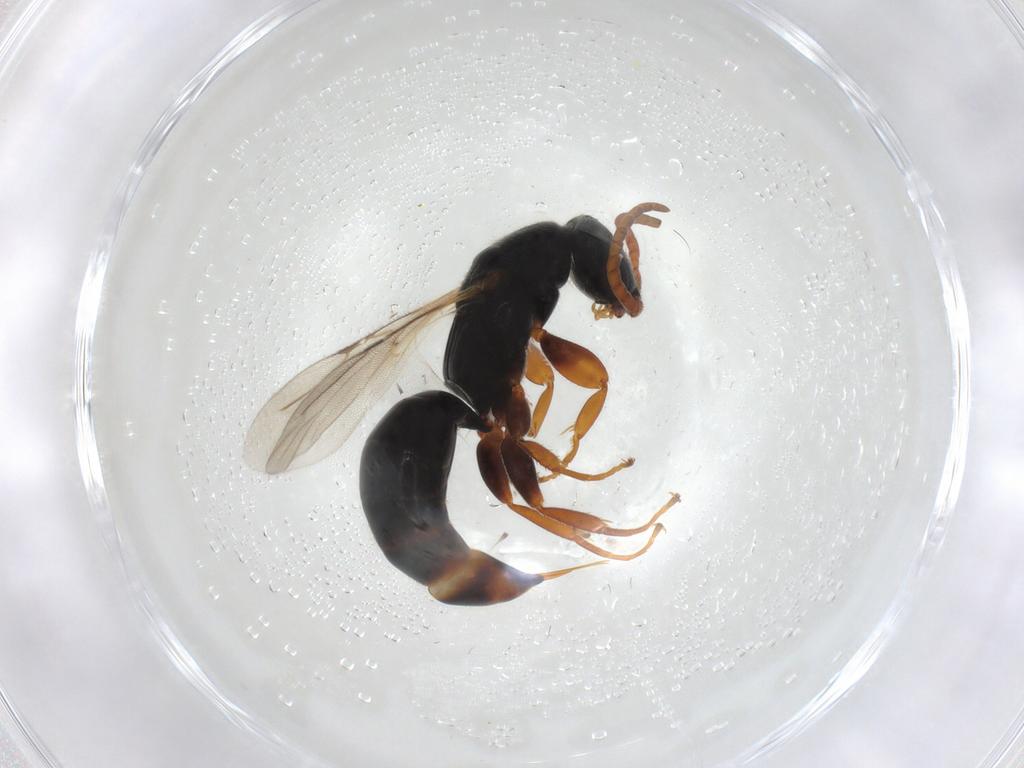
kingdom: Animalia
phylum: Arthropoda
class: Insecta
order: Hymenoptera
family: Bethylidae
